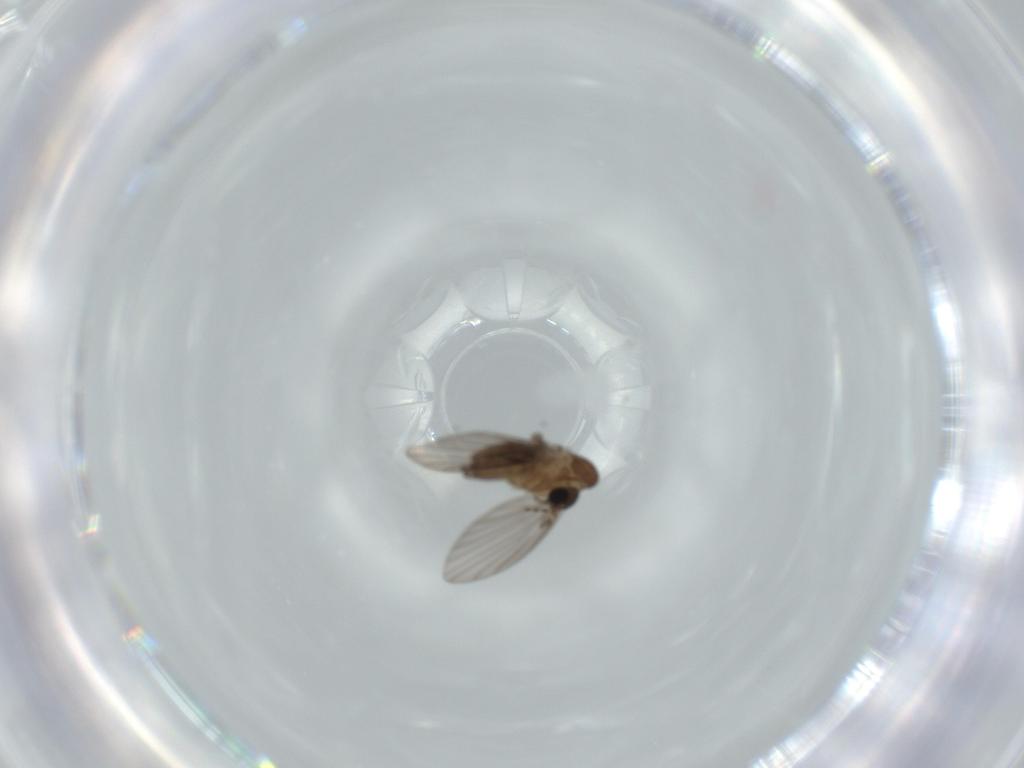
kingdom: Animalia
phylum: Arthropoda
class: Insecta
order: Diptera
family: Psychodidae
